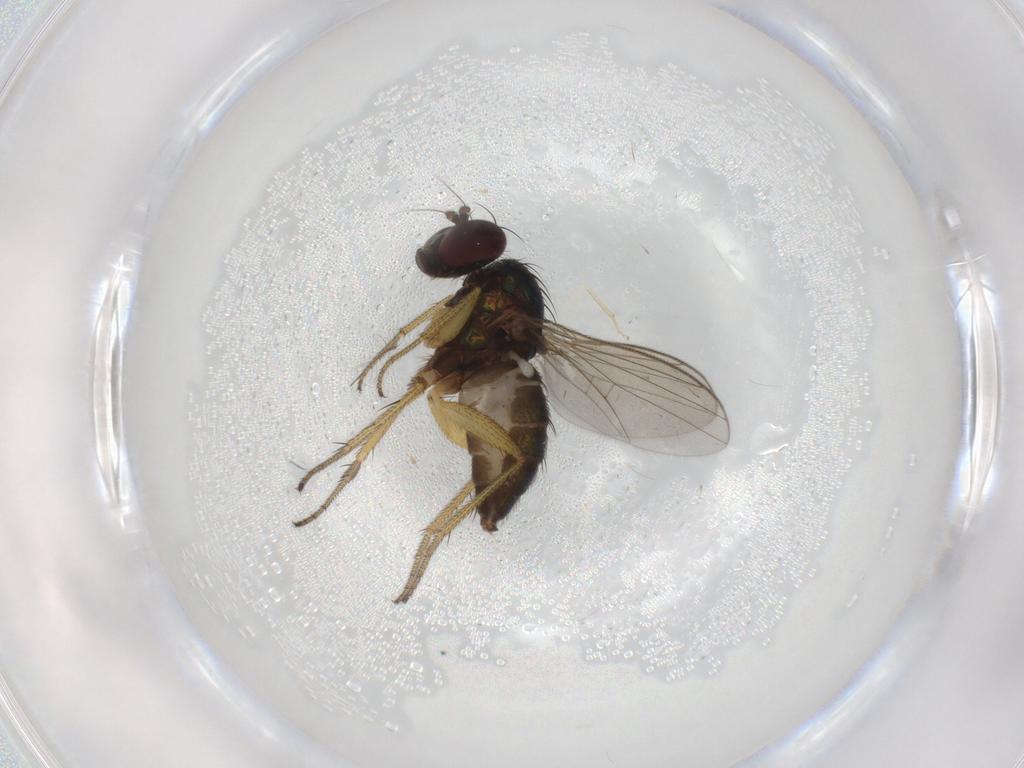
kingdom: Animalia
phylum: Arthropoda
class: Insecta
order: Diptera
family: Dolichopodidae
